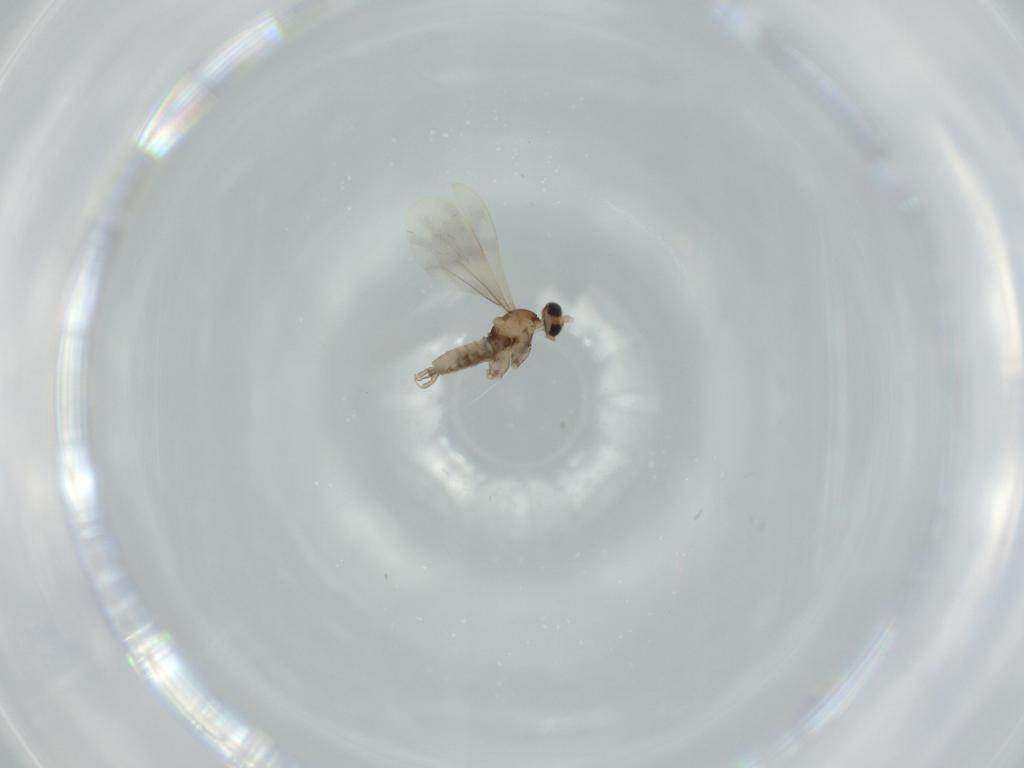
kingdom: Animalia
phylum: Arthropoda
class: Insecta
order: Diptera
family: Cecidomyiidae
